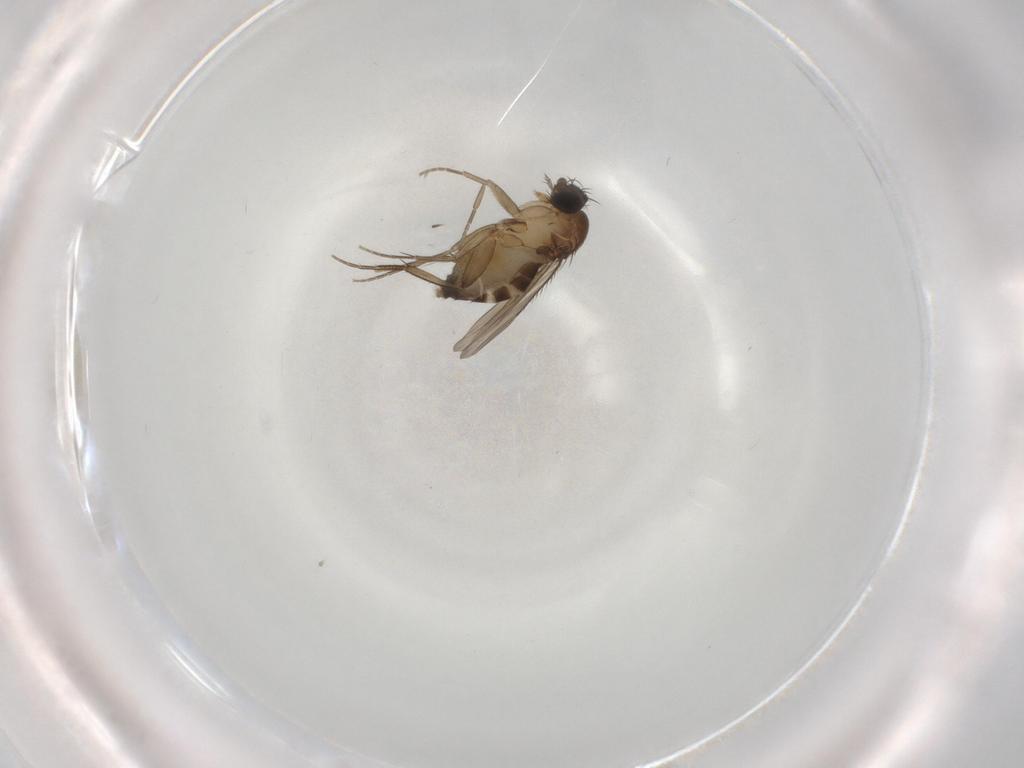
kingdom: Animalia
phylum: Arthropoda
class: Insecta
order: Diptera
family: Phoridae
